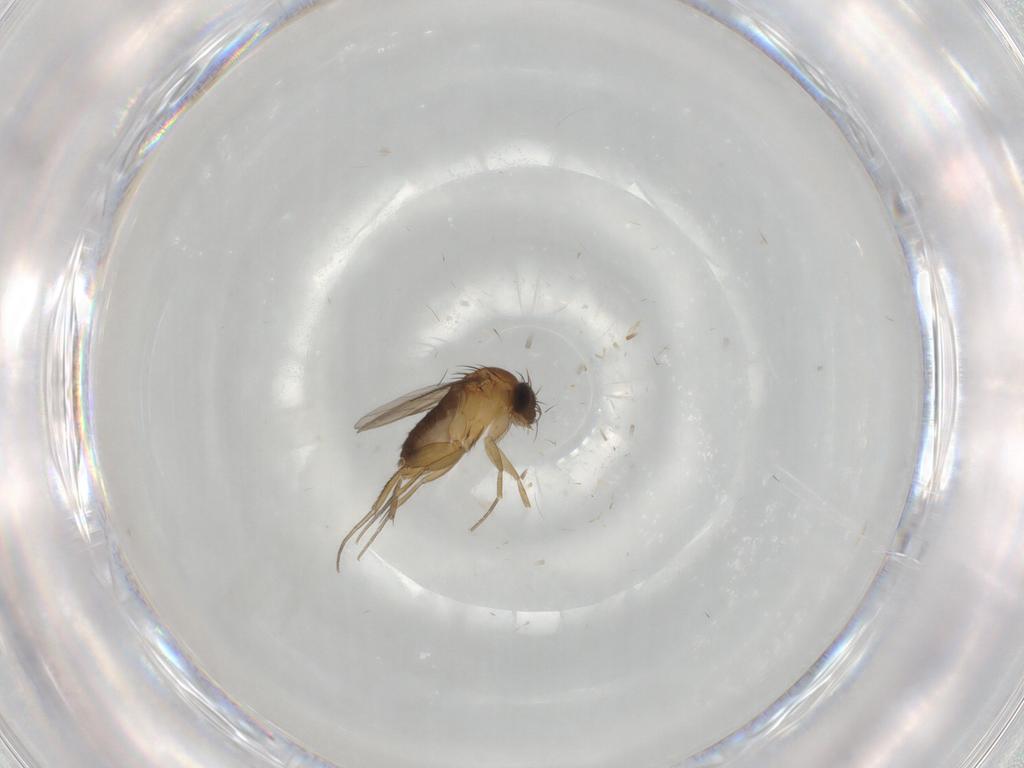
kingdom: Animalia
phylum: Arthropoda
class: Insecta
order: Diptera
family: Phoridae
